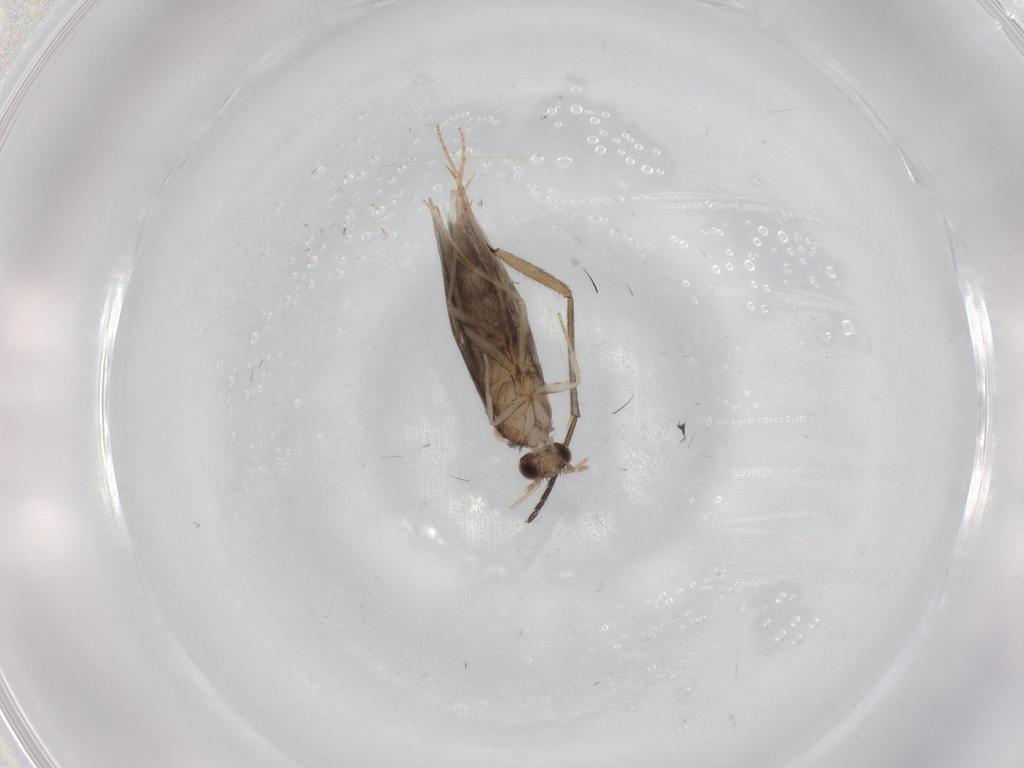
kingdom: Animalia
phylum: Arthropoda
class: Insecta
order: Trichoptera
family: Hydroptilidae
